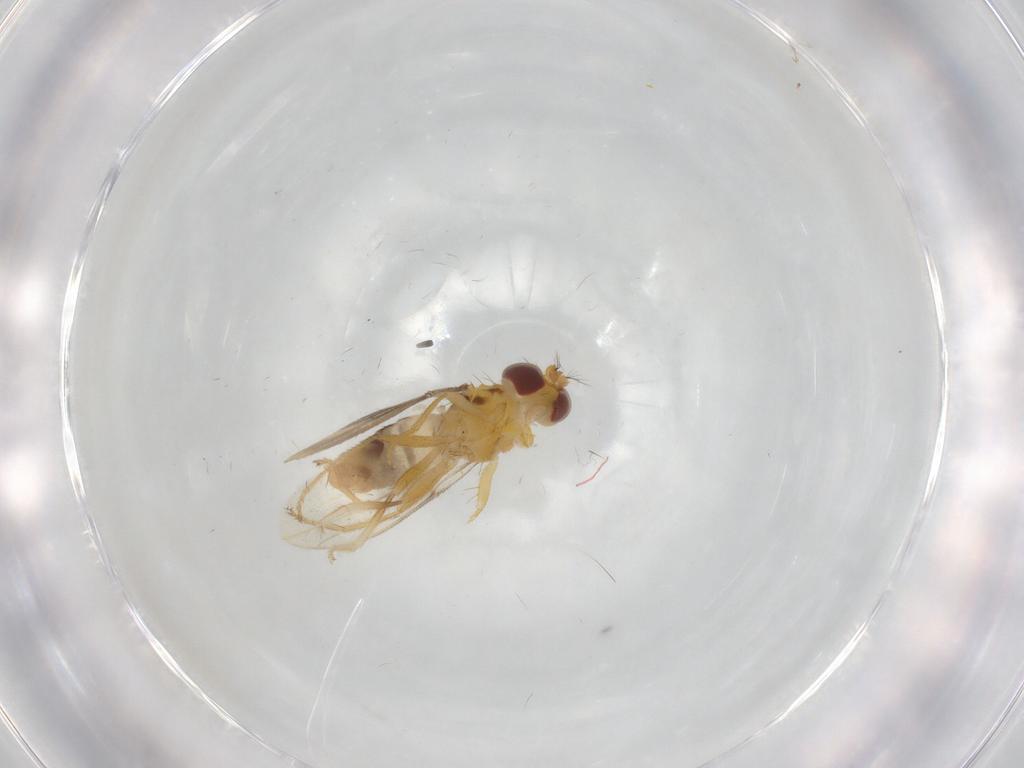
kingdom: Animalia
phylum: Arthropoda
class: Insecta
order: Diptera
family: Periscelididae
